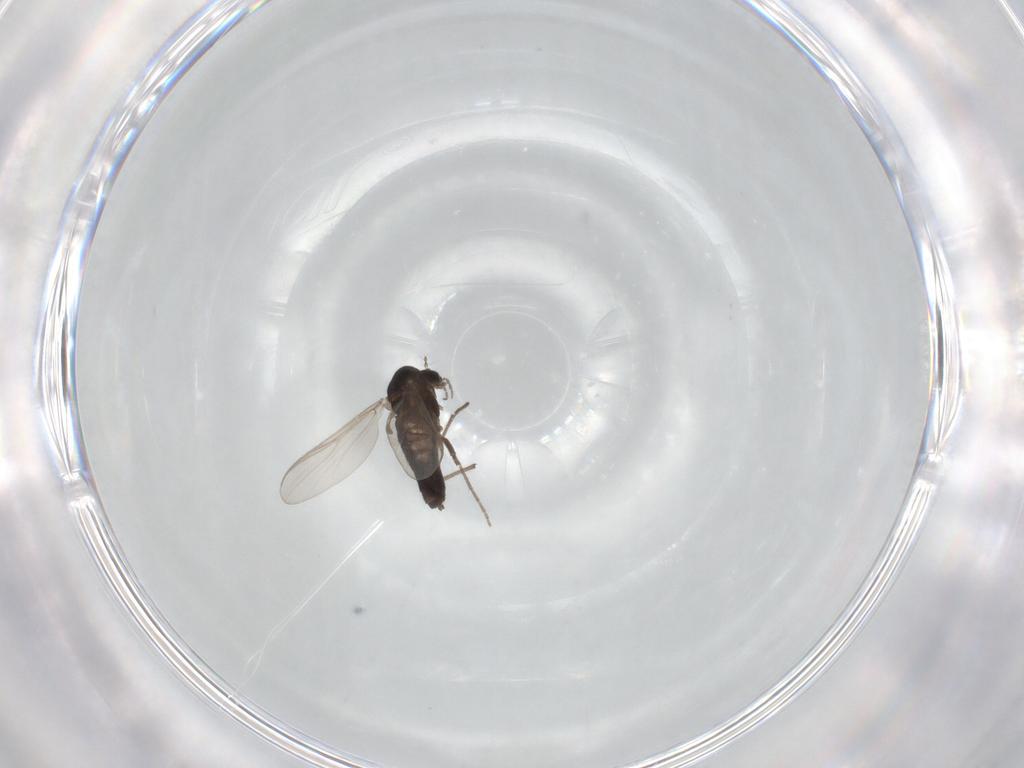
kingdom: Animalia
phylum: Arthropoda
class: Insecta
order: Diptera
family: Chironomidae
